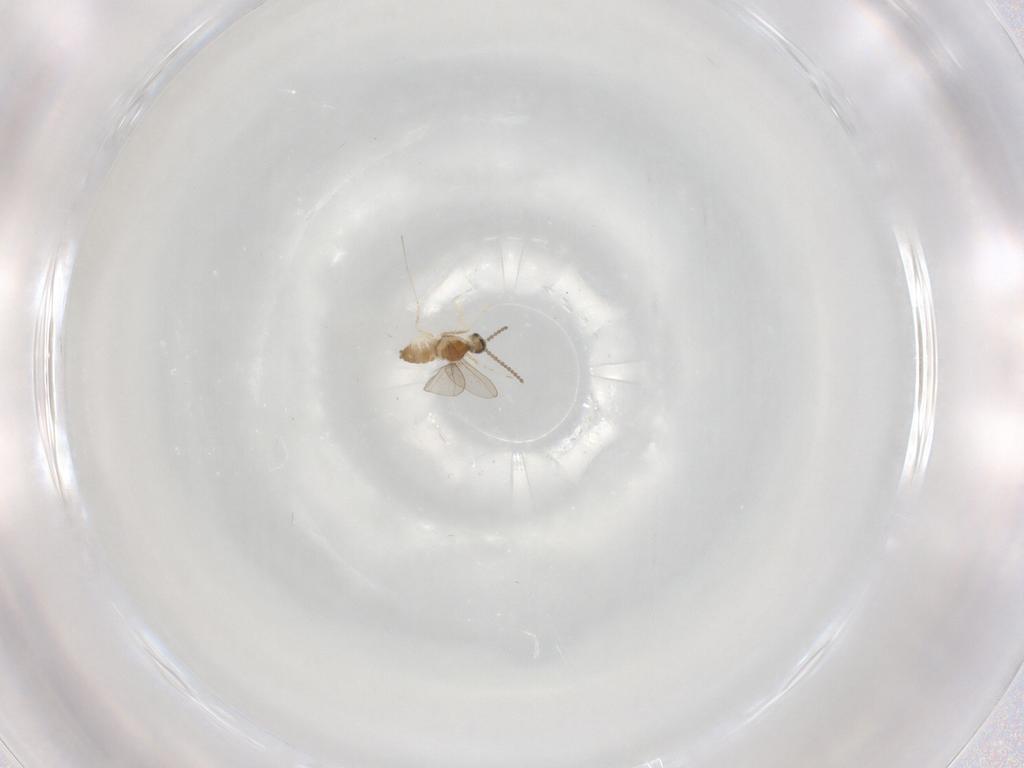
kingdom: Animalia
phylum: Arthropoda
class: Insecta
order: Diptera
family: Cecidomyiidae
